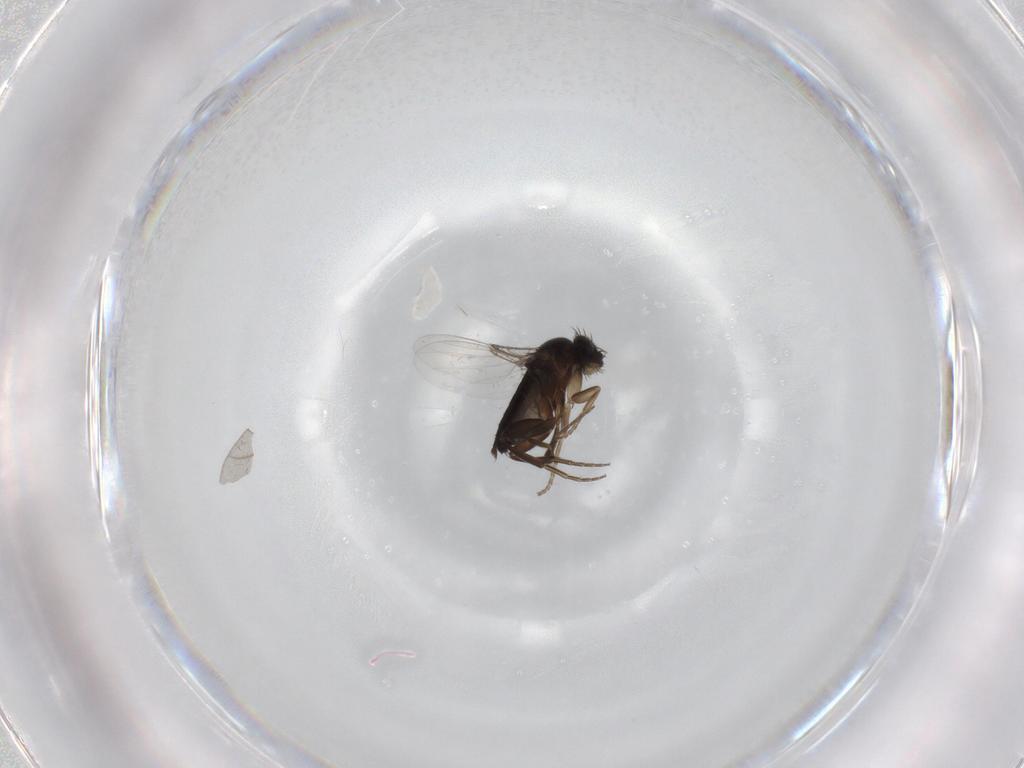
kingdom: Animalia
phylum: Arthropoda
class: Insecta
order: Diptera
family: Phoridae
